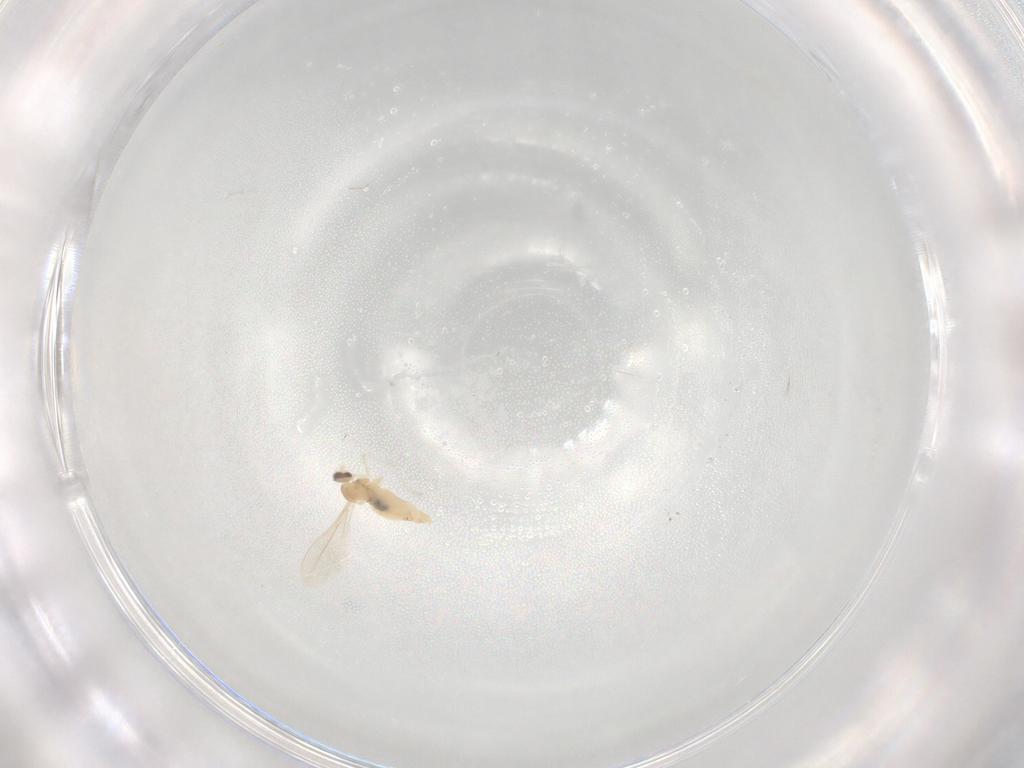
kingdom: Animalia
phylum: Arthropoda
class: Insecta
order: Diptera
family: Cecidomyiidae
